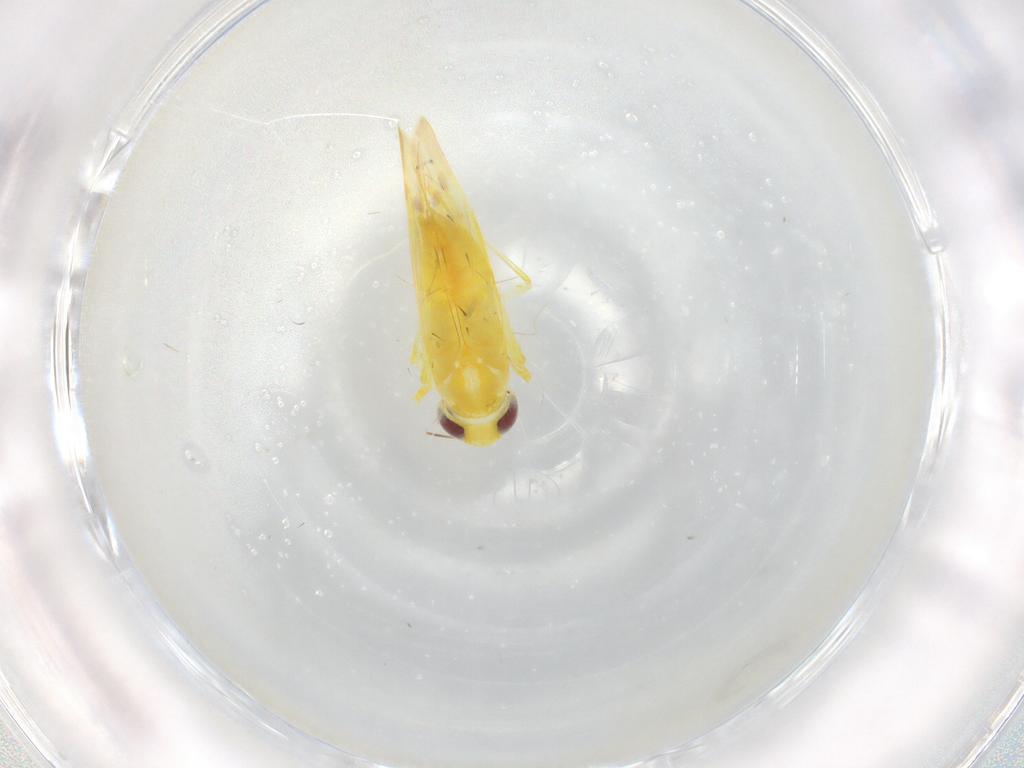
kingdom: Animalia
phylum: Arthropoda
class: Insecta
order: Hemiptera
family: Cicadellidae
